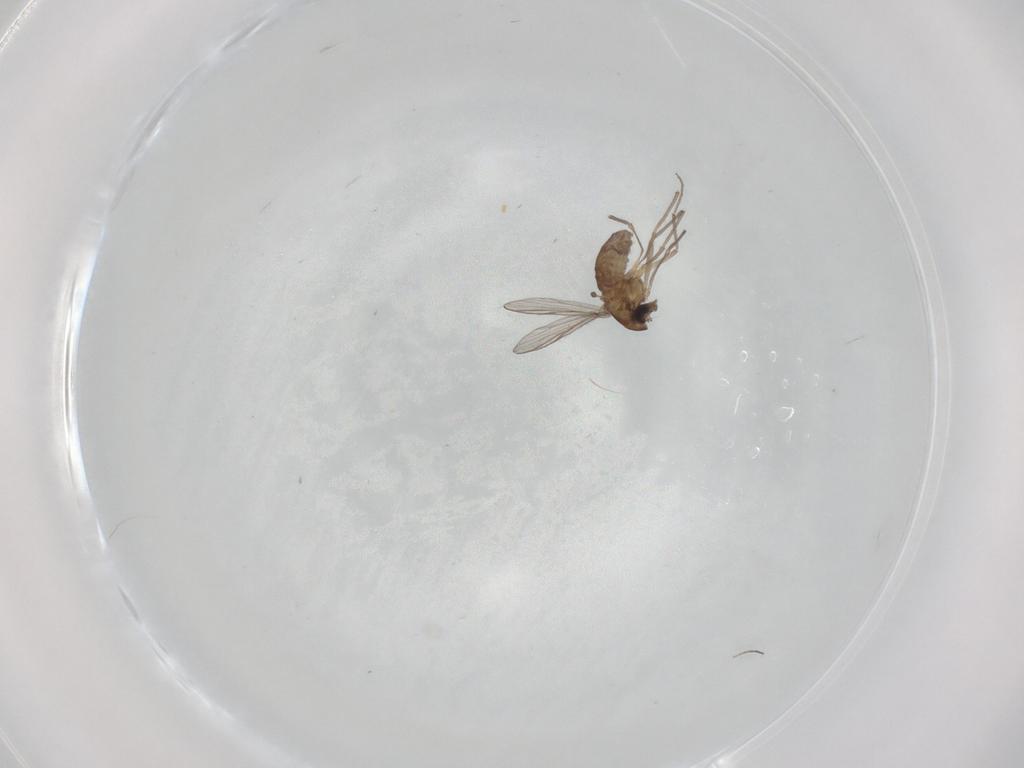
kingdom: Animalia
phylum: Arthropoda
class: Insecta
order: Diptera
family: Chironomidae
